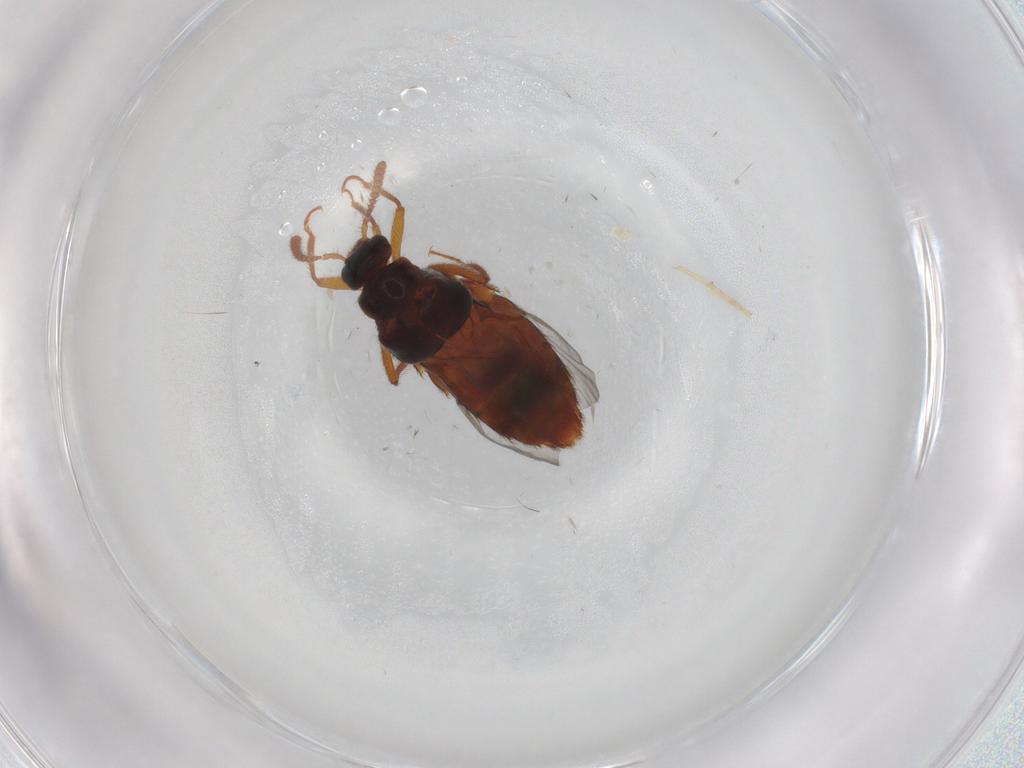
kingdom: Animalia
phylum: Arthropoda
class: Insecta
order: Coleoptera
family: Staphylinidae
